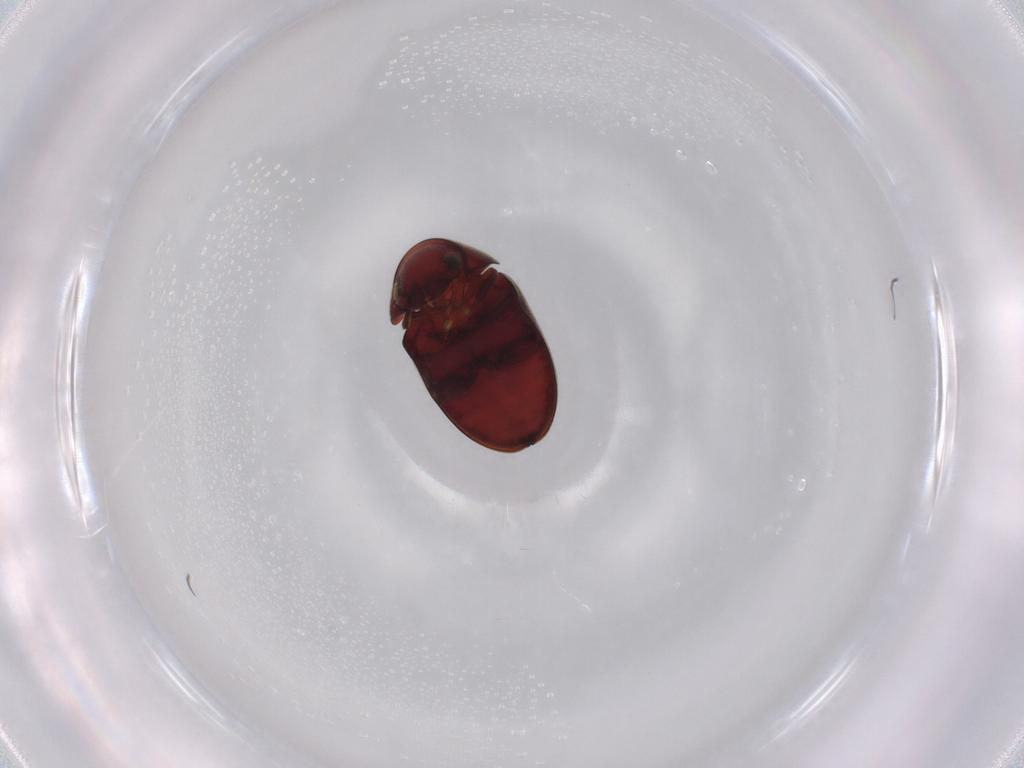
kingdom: Animalia
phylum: Arthropoda
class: Insecta
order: Coleoptera
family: Ptinidae
